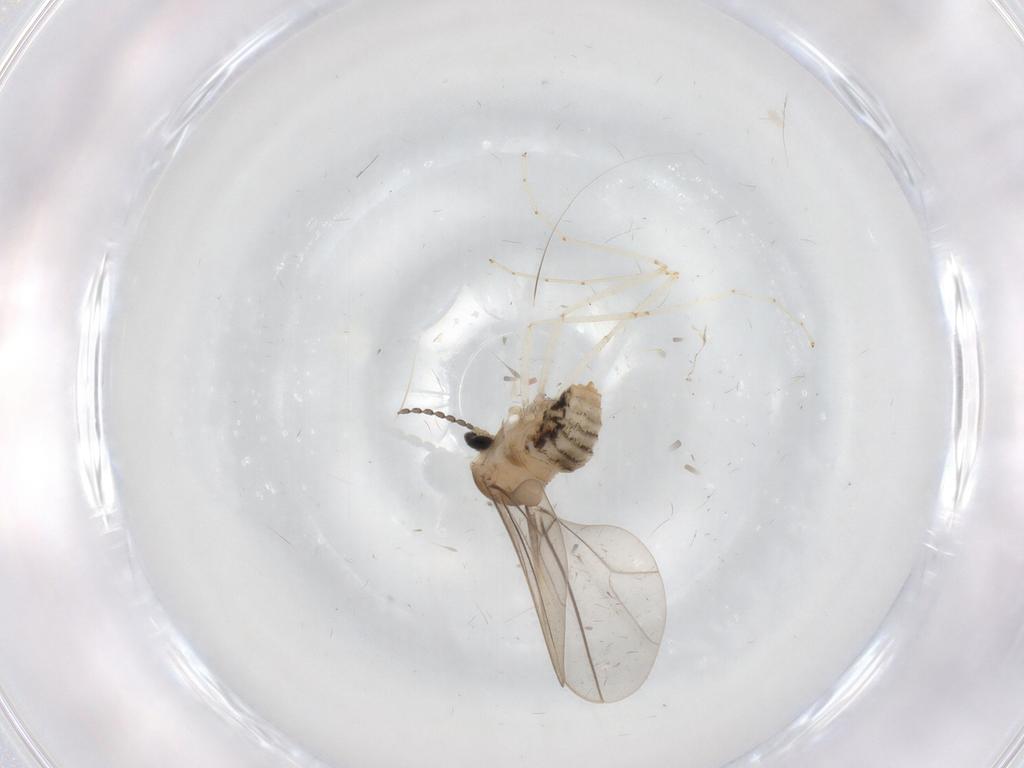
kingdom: Animalia
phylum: Arthropoda
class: Insecta
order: Diptera
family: Cecidomyiidae
